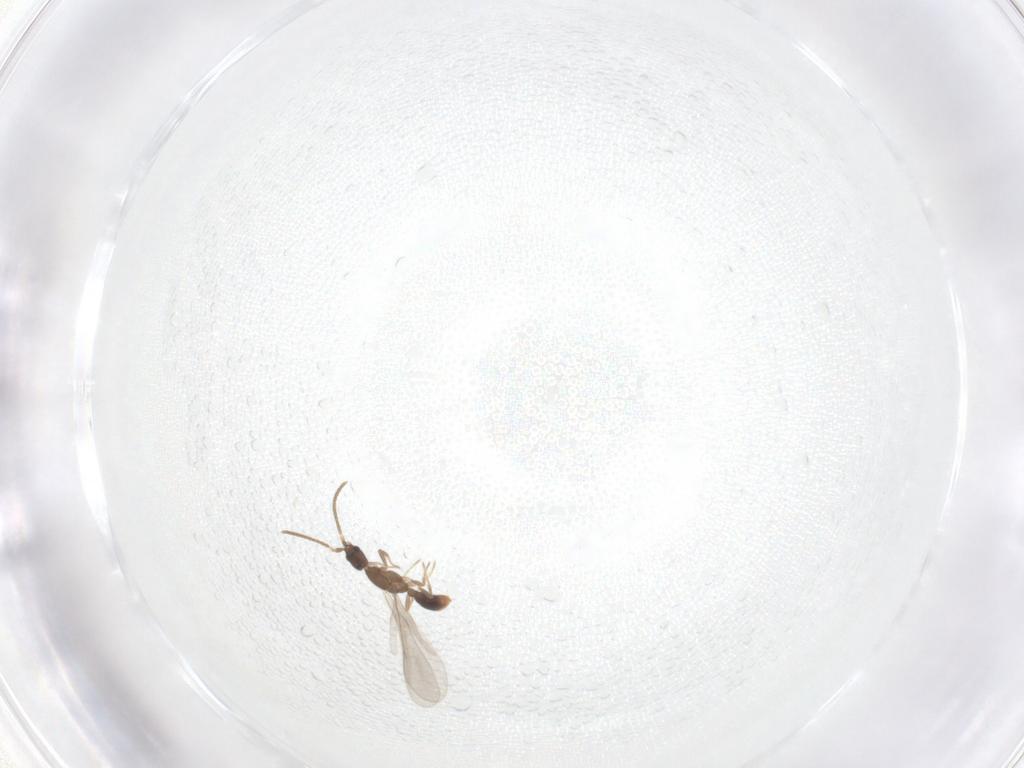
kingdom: Animalia
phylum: Arthropoda
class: Insecta
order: Hymenoptera
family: Formicidae
